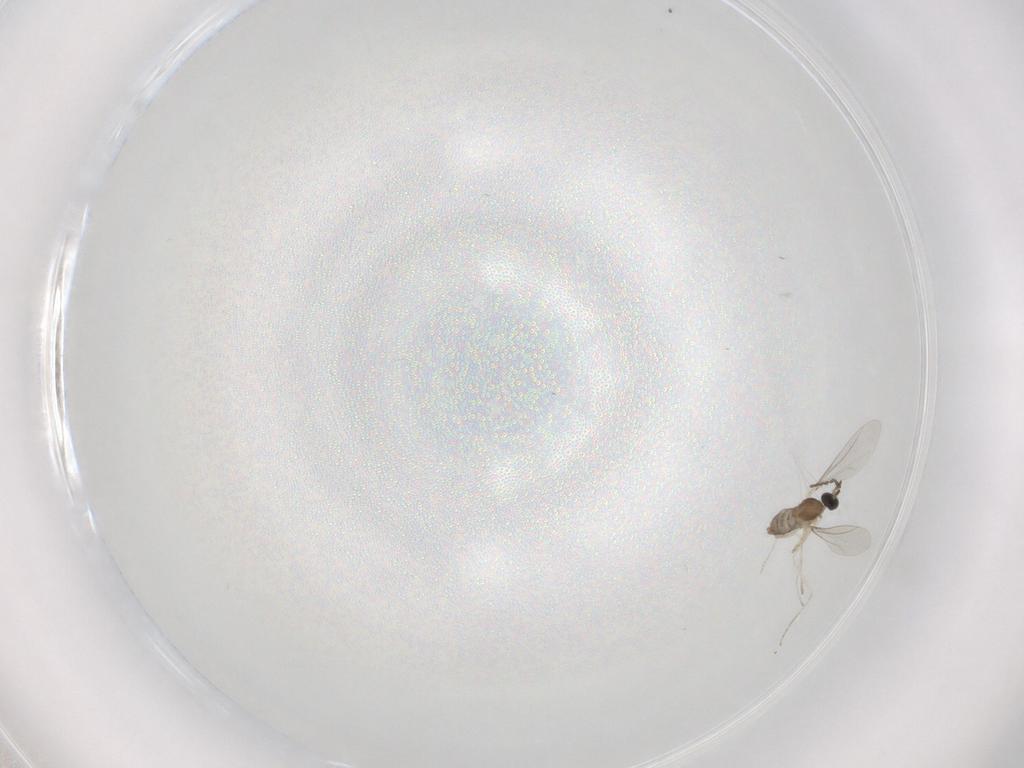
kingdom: Animalia
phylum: Arthropoda
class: Insecta
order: Diptera
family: Cecidomyiidae
